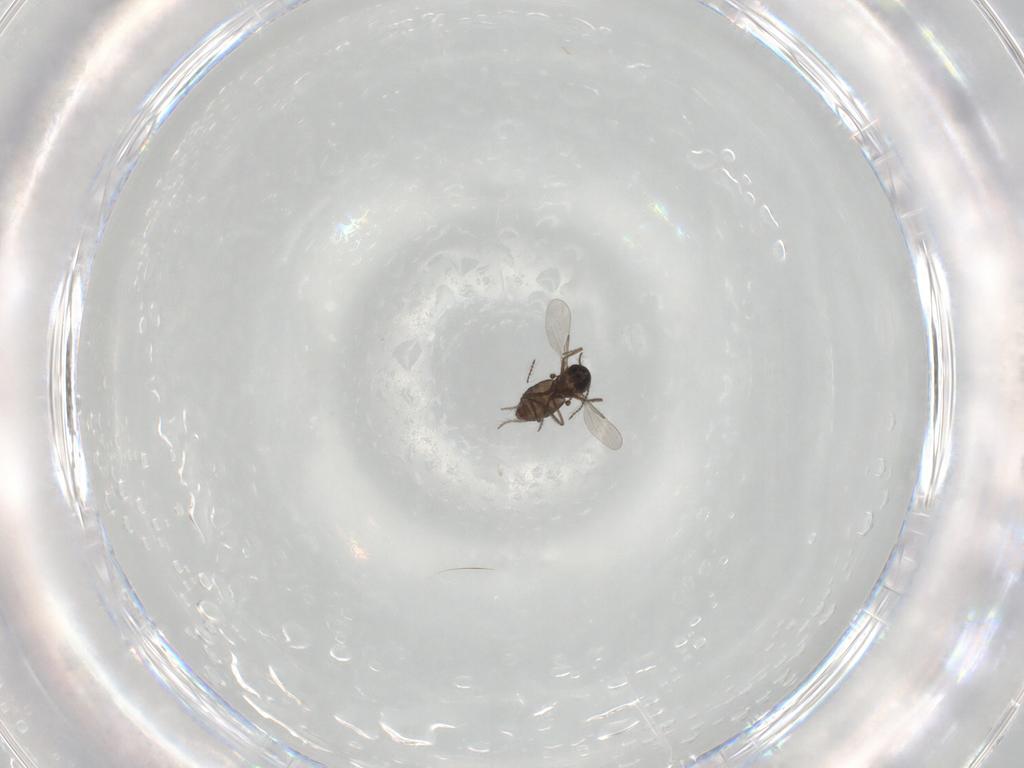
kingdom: Animalia
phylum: Arthropoda
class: Insecta
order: Diptera
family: Ceratopogonidae
